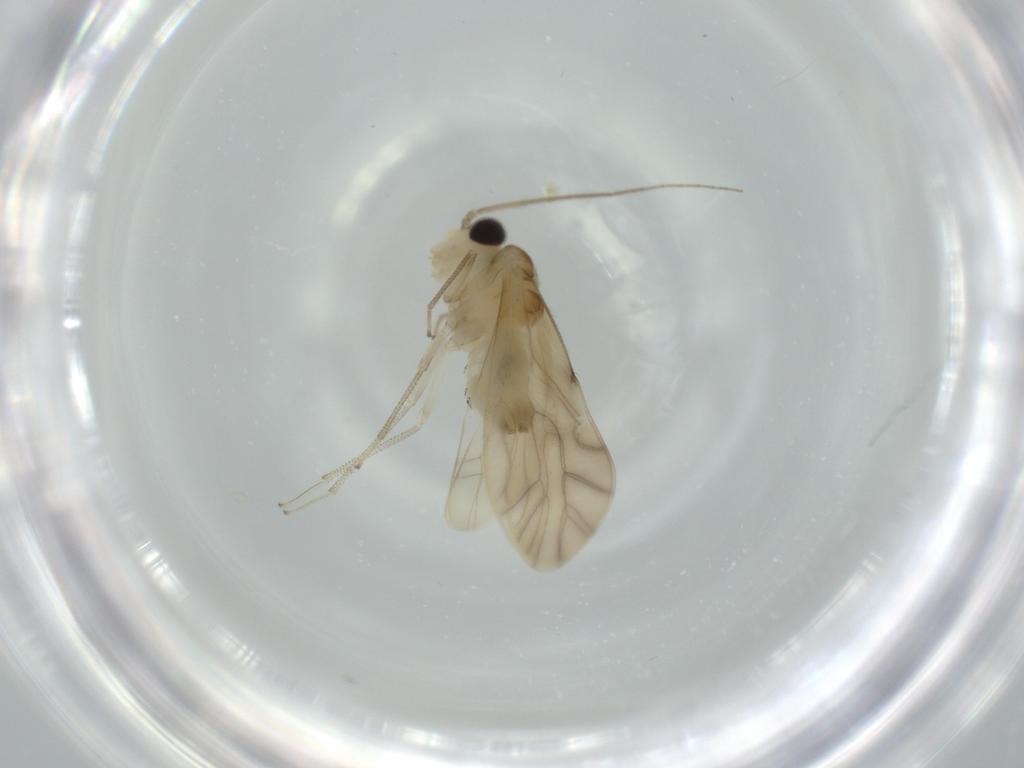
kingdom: Animalia
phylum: Arthropoda
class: Insecta
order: Psocodea
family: Caeciliusidae
